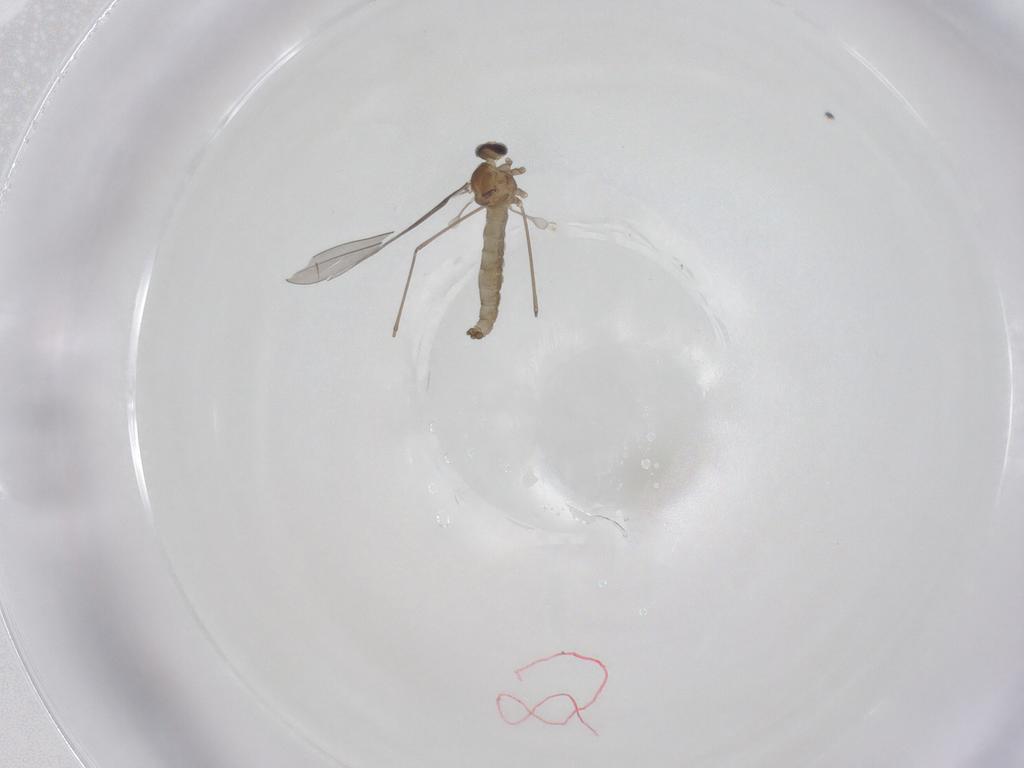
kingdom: Animalia
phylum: Arthropoda
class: Insecta
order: Diptera
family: Cecidomyiidae
